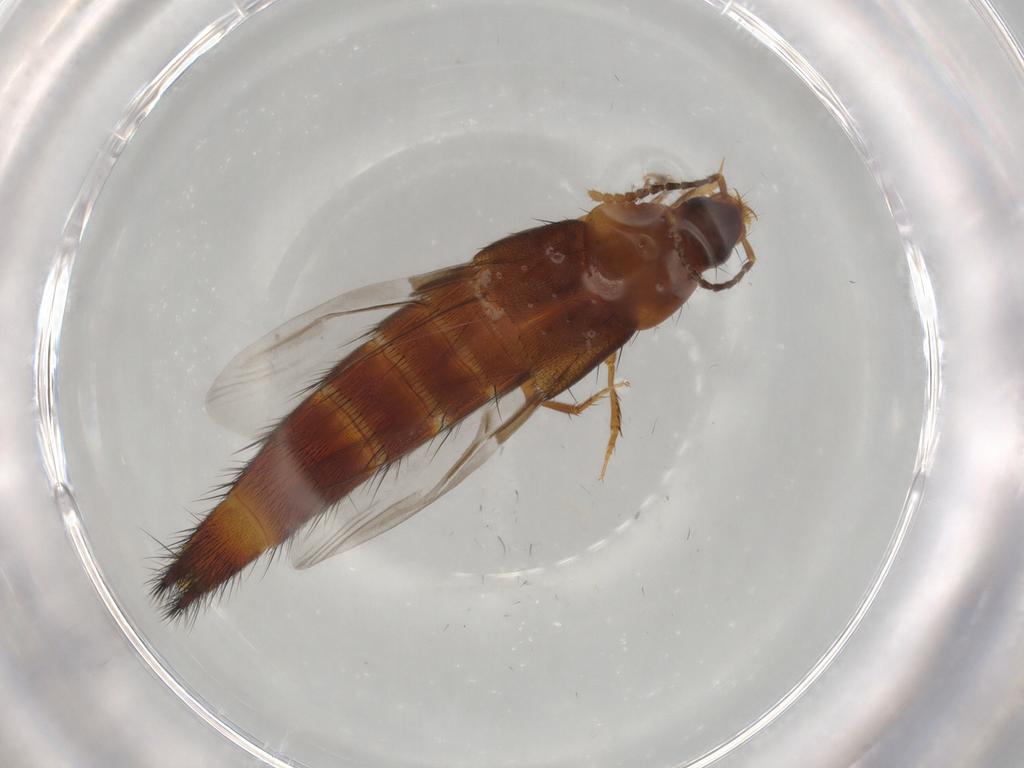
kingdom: Animalia
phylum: Arthropoda
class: Insecta
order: Coleoptera
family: Staphylinidae
